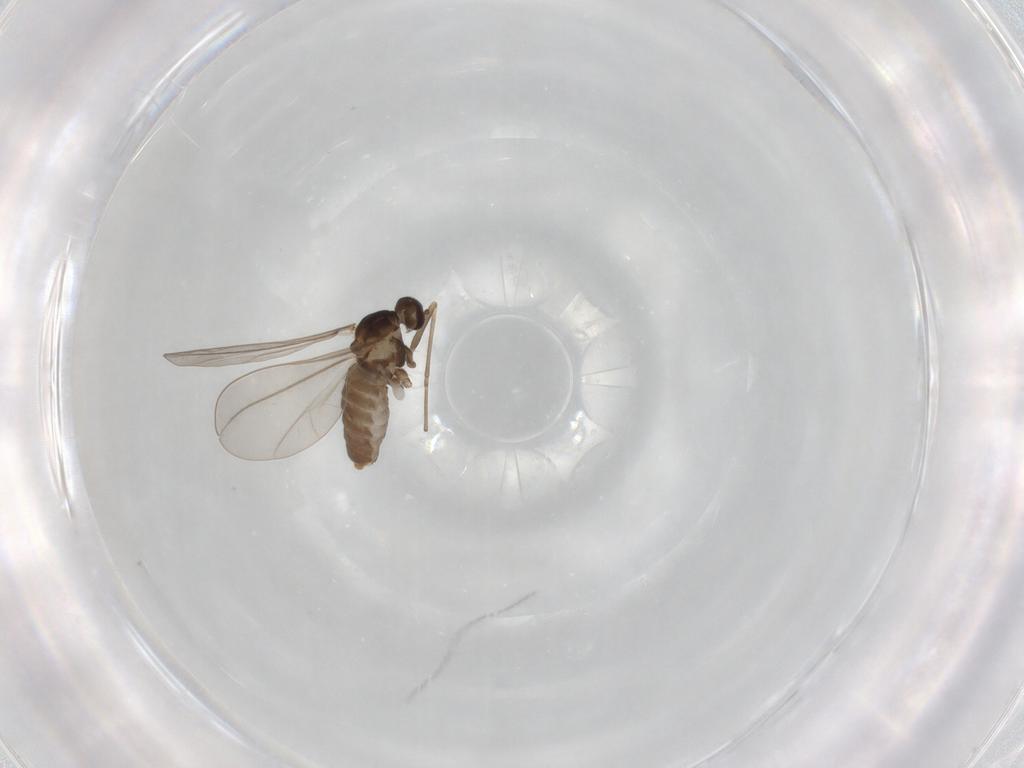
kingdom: Animalia
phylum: Arthropoda
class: Insecta
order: Diptera
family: Cecidomyiidae
